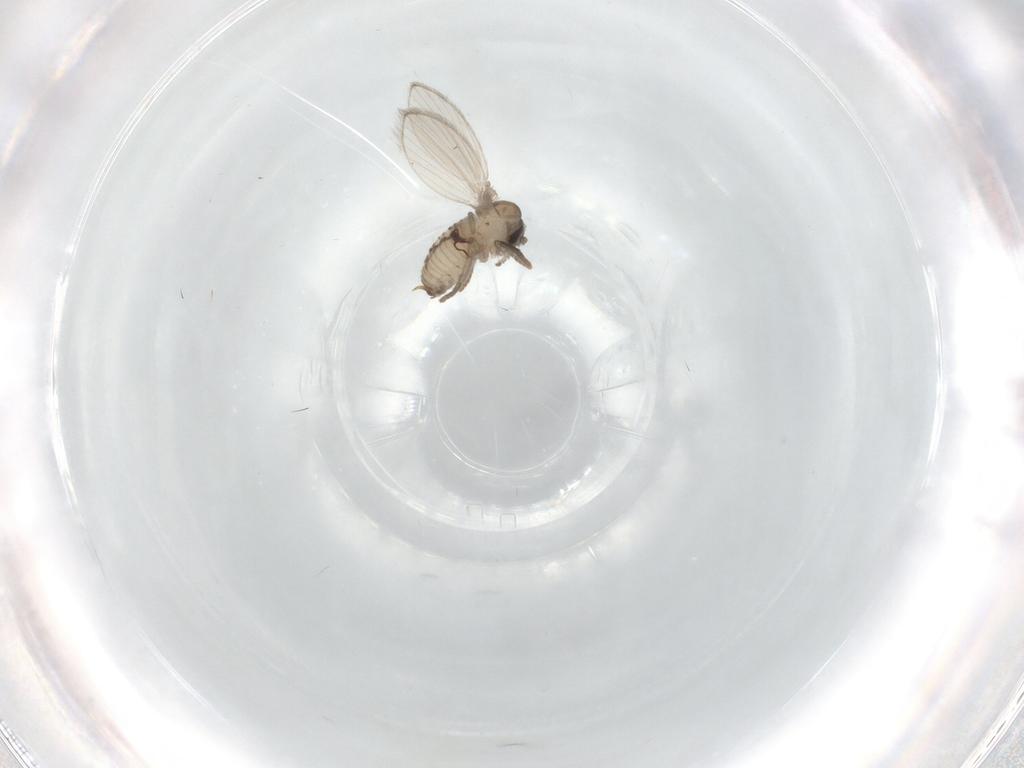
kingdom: Animalia
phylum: Arthropoda
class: Insecta
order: Diptera
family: Psychodidae
